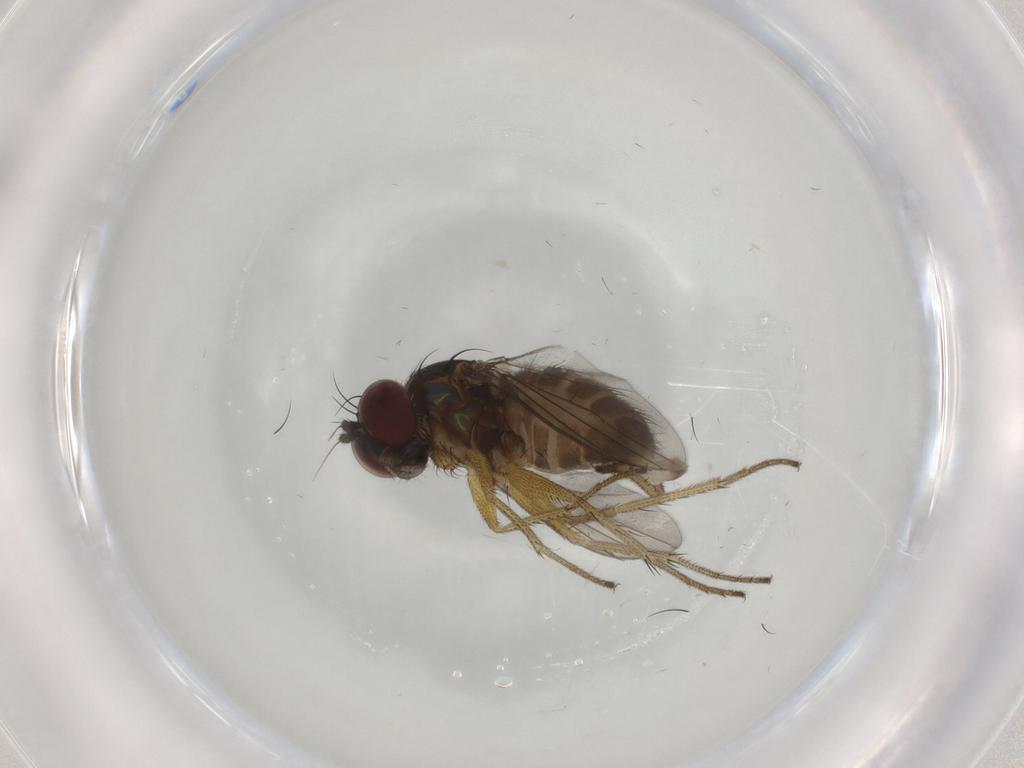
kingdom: Animalia
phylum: Arthropoda
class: Insecta
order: Diptera
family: Dolichopodidae
